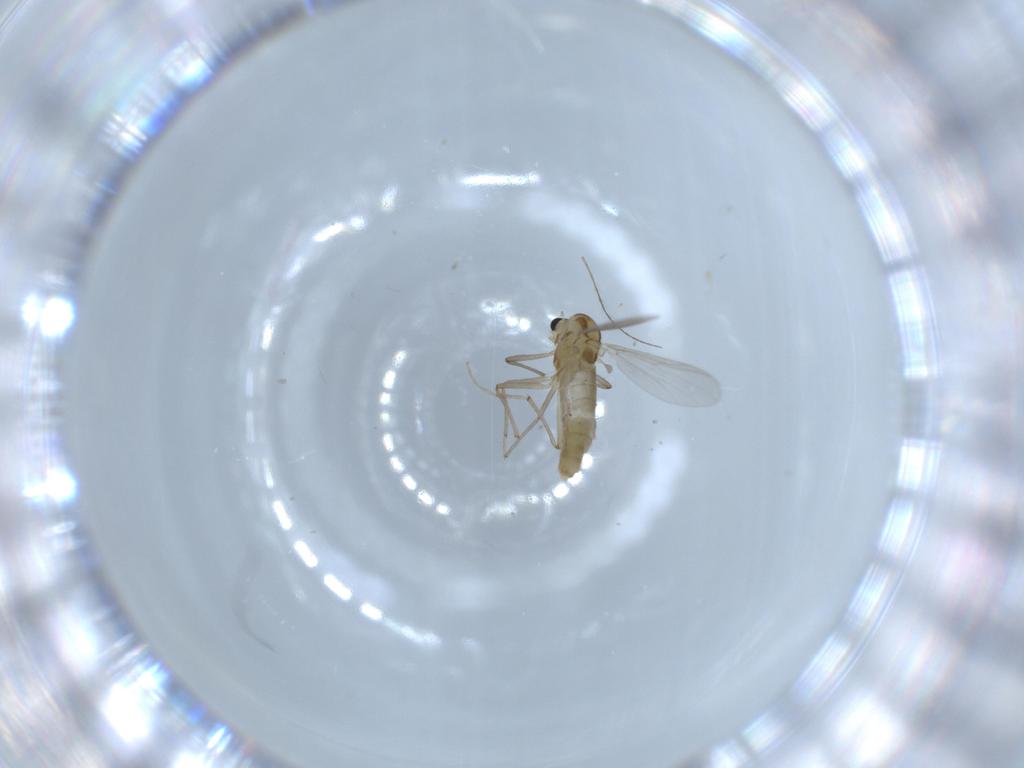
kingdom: Animalia
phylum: Arthropoda
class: Insecta
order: Diptera
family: Chironomidae
